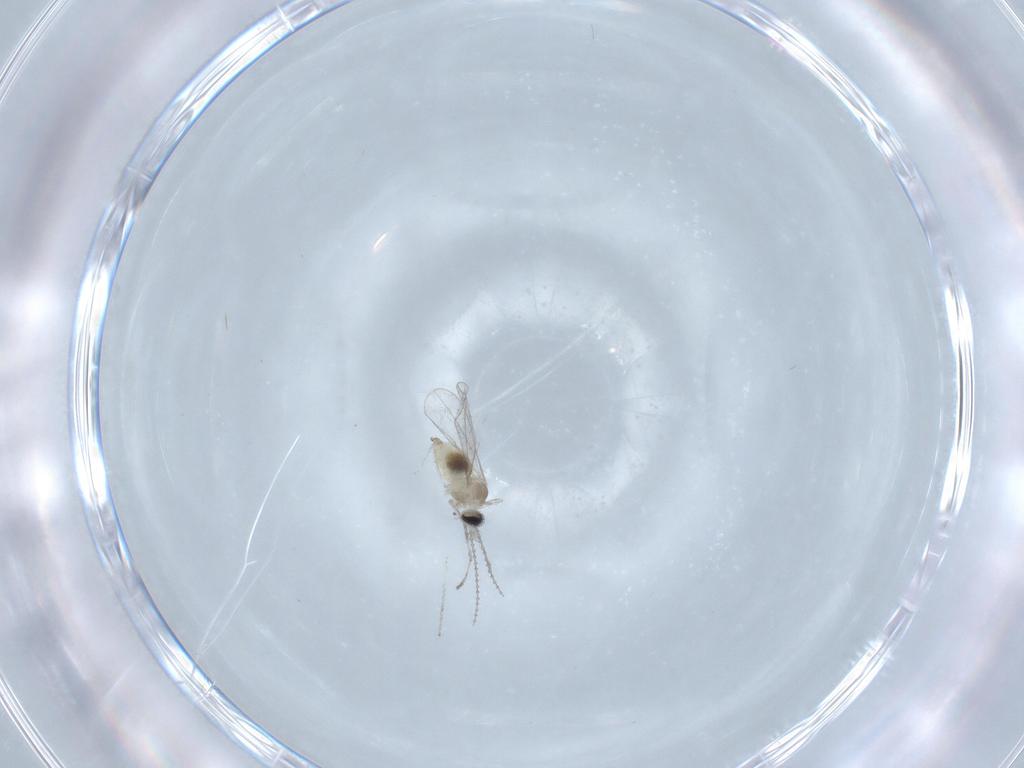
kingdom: Animalia
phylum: Arthropoda
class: Insecta
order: Diptera
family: Cecidomyiidae
